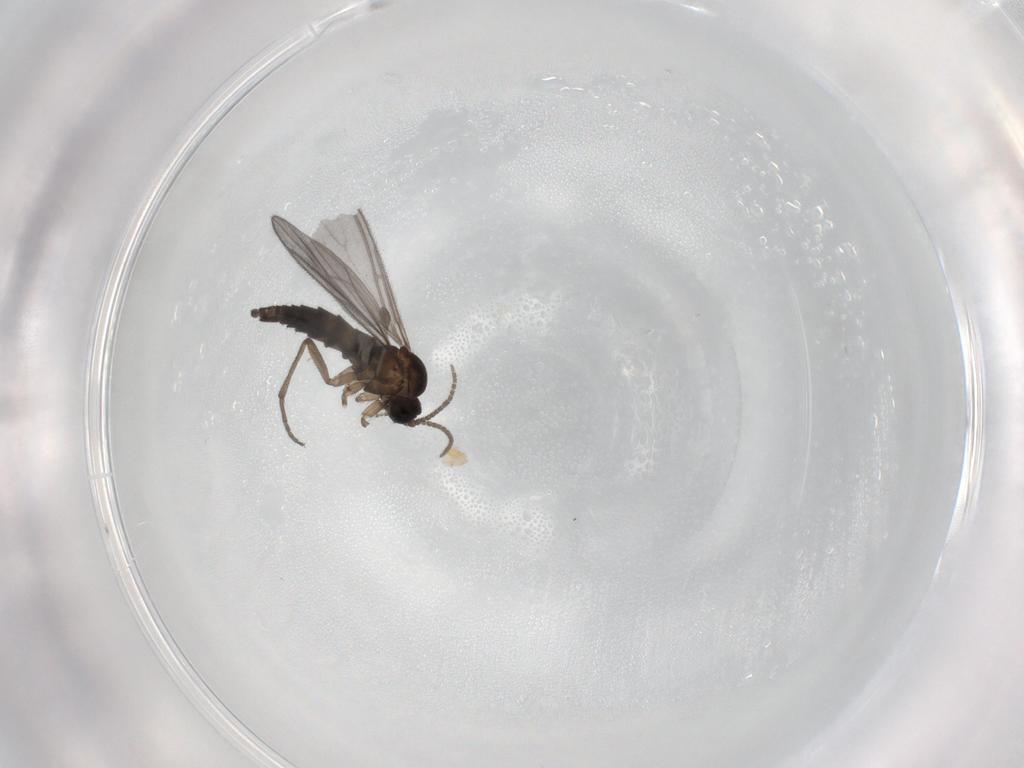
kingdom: Animalia
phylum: Arthropoda
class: Insecta
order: Diptera
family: Sciaridae
